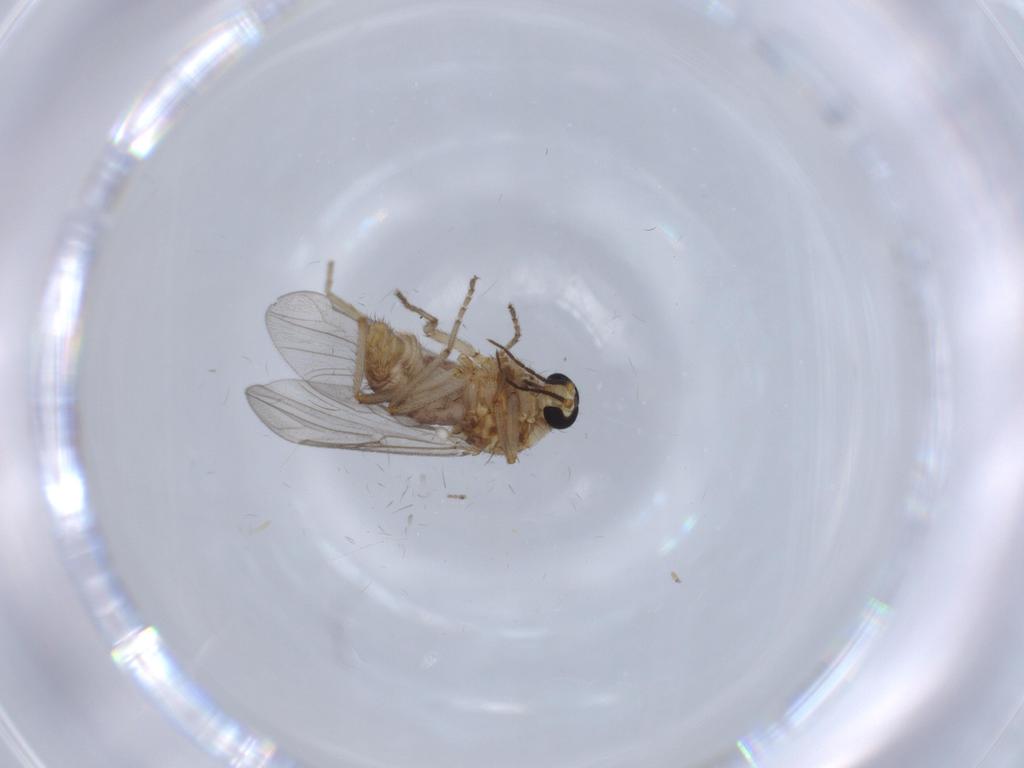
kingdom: Animalia
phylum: Arthropoda
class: Insecta
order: Diptera
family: Ceratopogonidae
